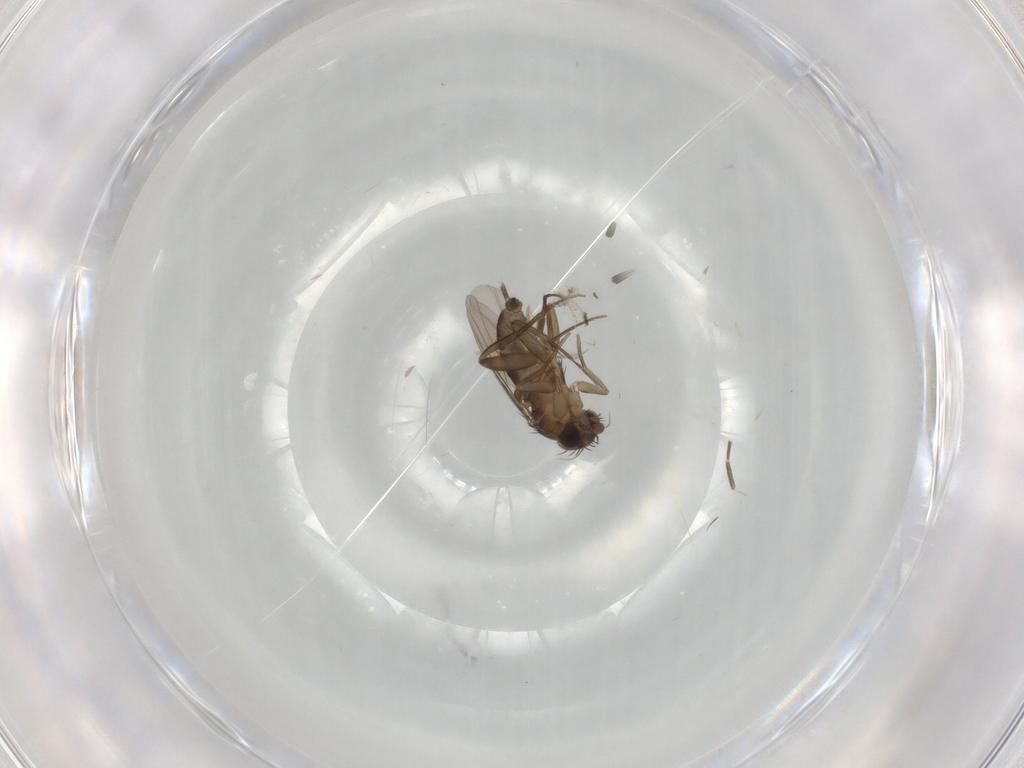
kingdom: Animalia
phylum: Arthropoda
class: Insecta
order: Diptera
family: Phoridae
